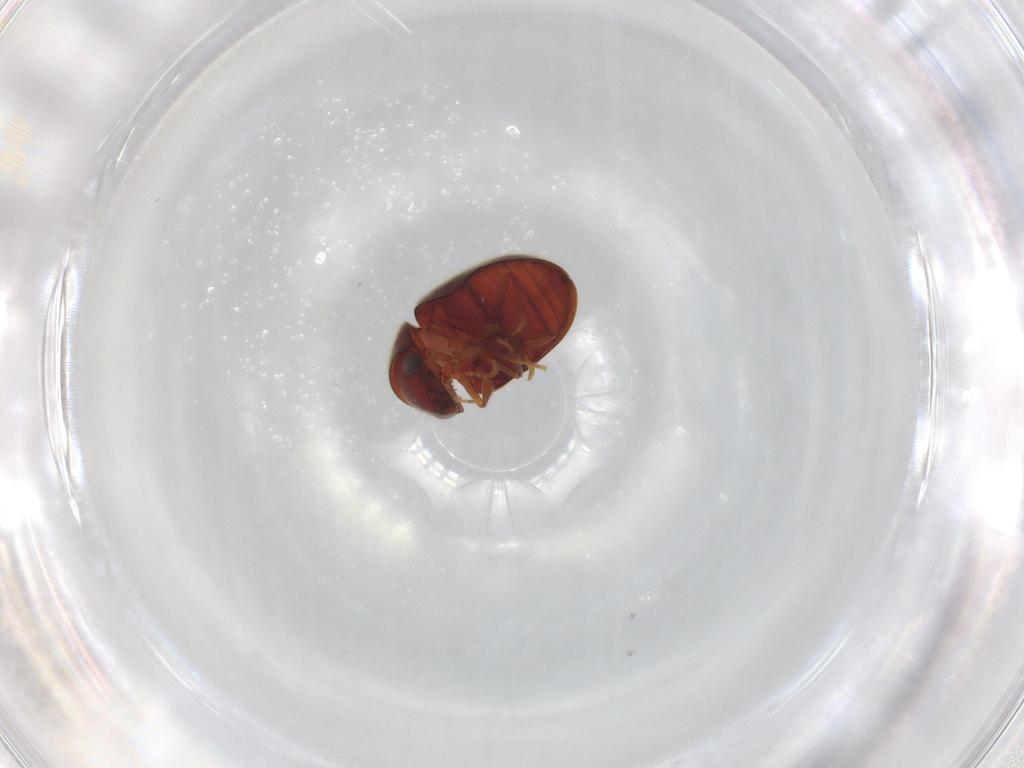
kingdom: Animalia
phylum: Arthropoda
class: Insecta
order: Coleoptera
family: Ptinidae
